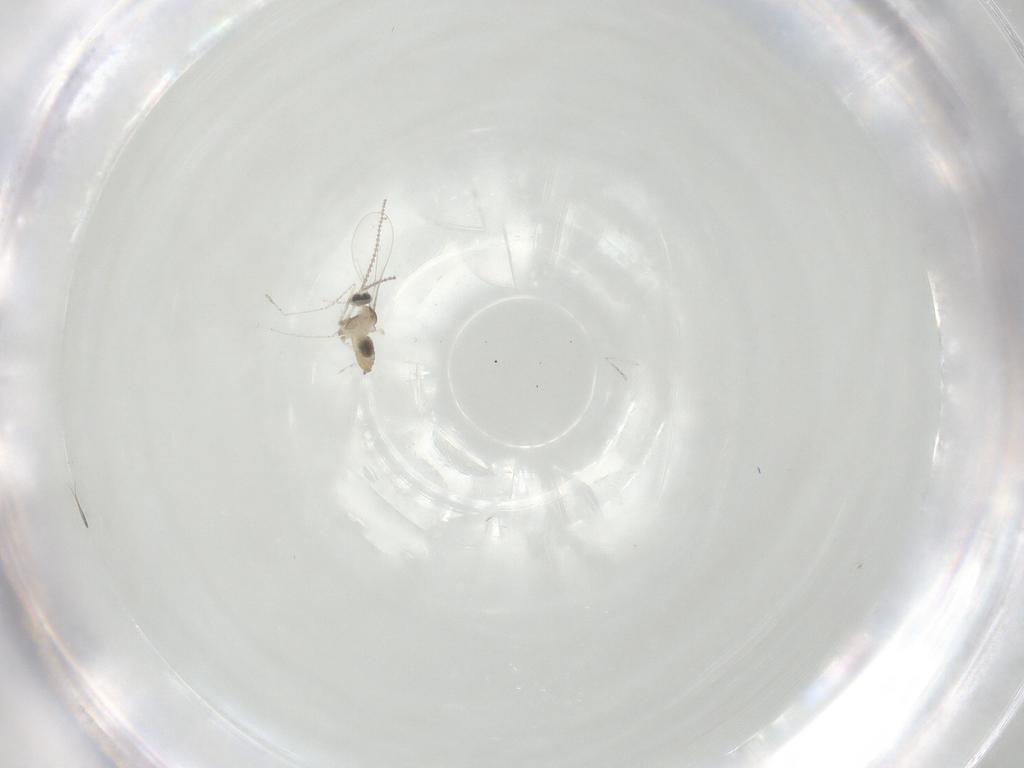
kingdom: Animalia
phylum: Arthropoda
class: Insecta
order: Diptera
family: Cecidomyiidae
